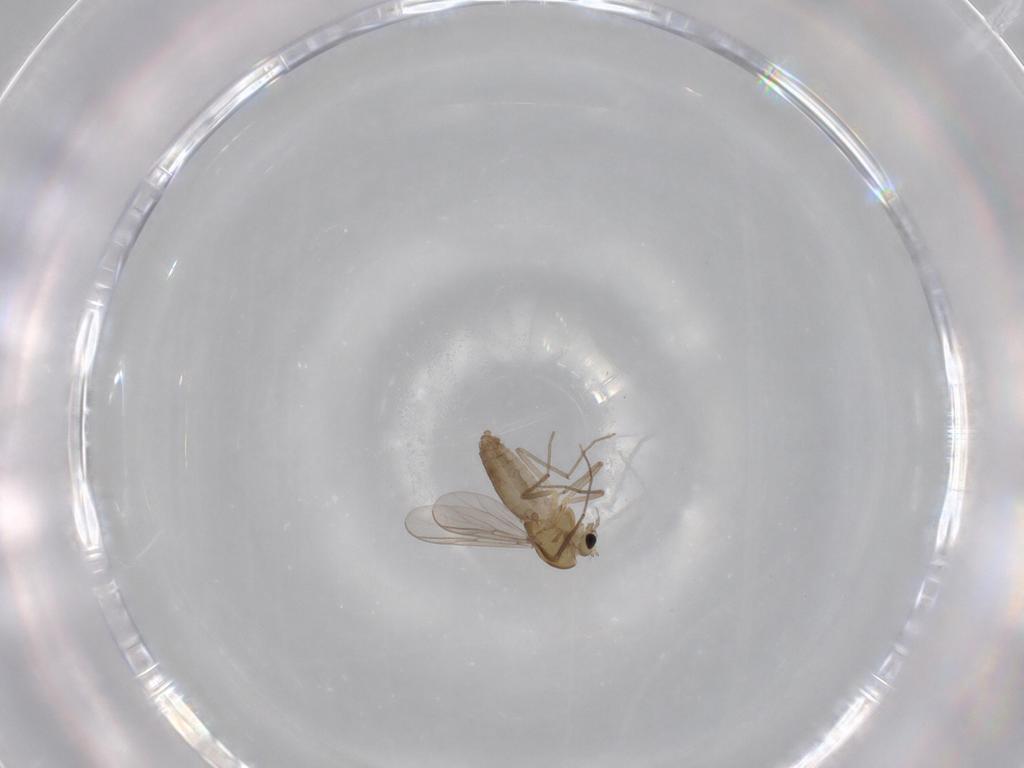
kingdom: Animalia
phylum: Arthropoda
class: Insecta
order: Diptera
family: Chironomidae
